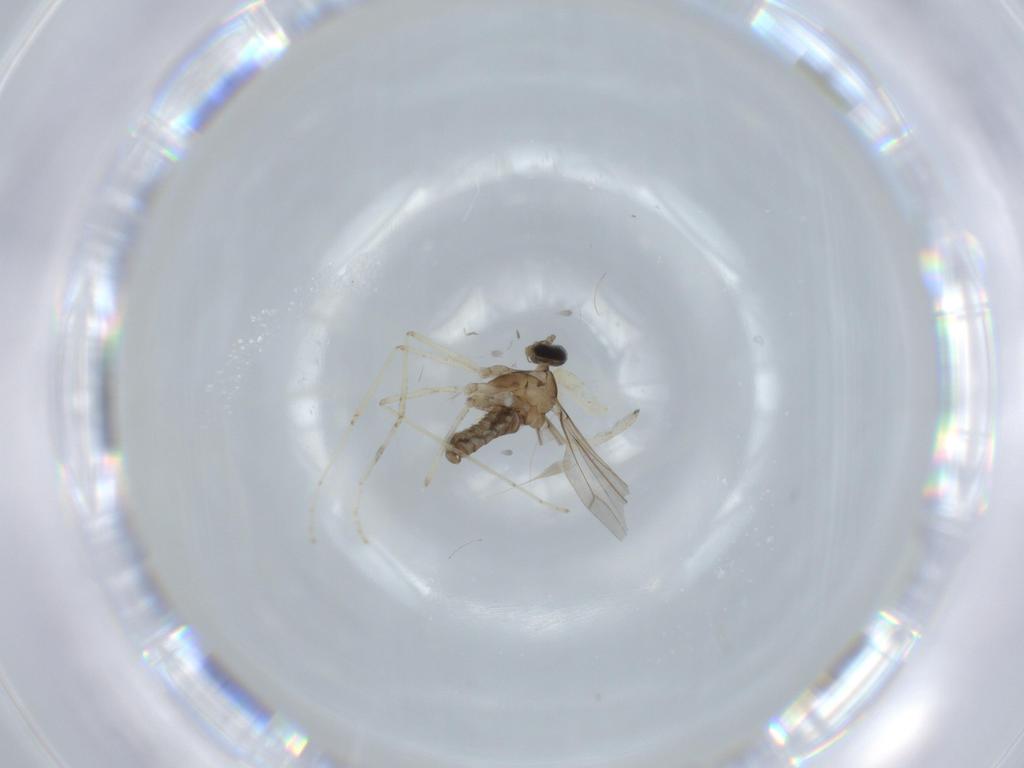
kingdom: Animalia
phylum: Arthropoda
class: Insecta
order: Diptera
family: Cecidomyiidae
